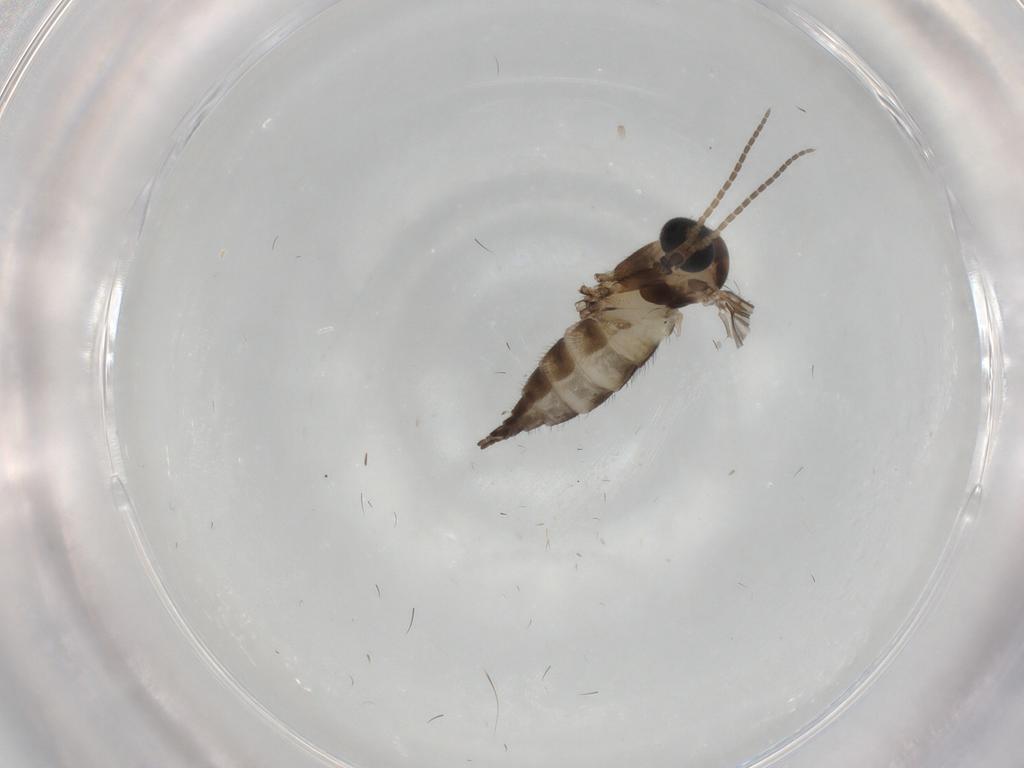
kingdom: Animalia
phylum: Arthropoda
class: Insecta
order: Diptera
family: Sciaridae
